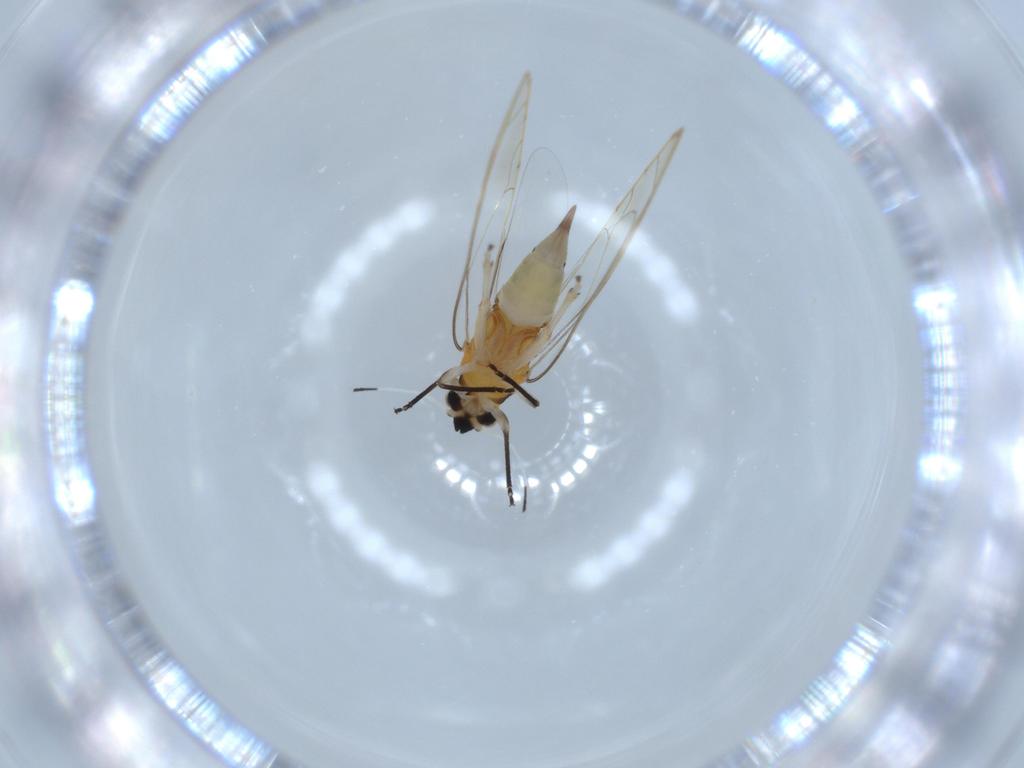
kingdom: Animalia
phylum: Arthropoda
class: Insecta
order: Hemiptera
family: Triozidae
